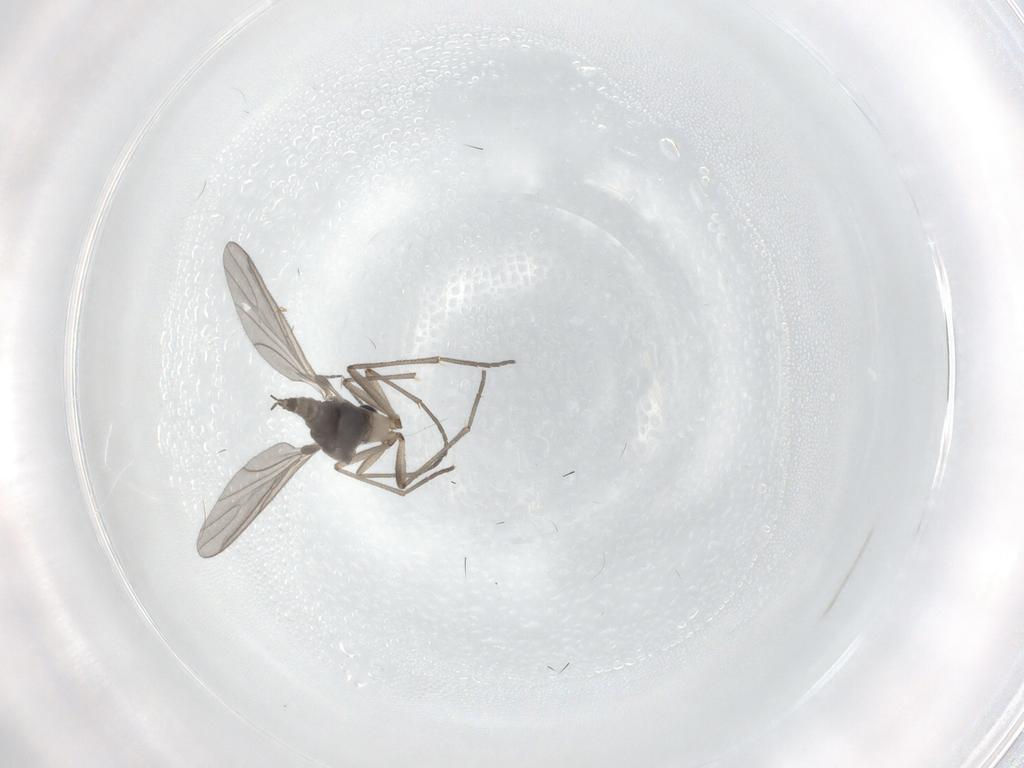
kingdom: Animalia
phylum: Arthropoda
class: Insecta
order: Diptera
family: Sciaridae
